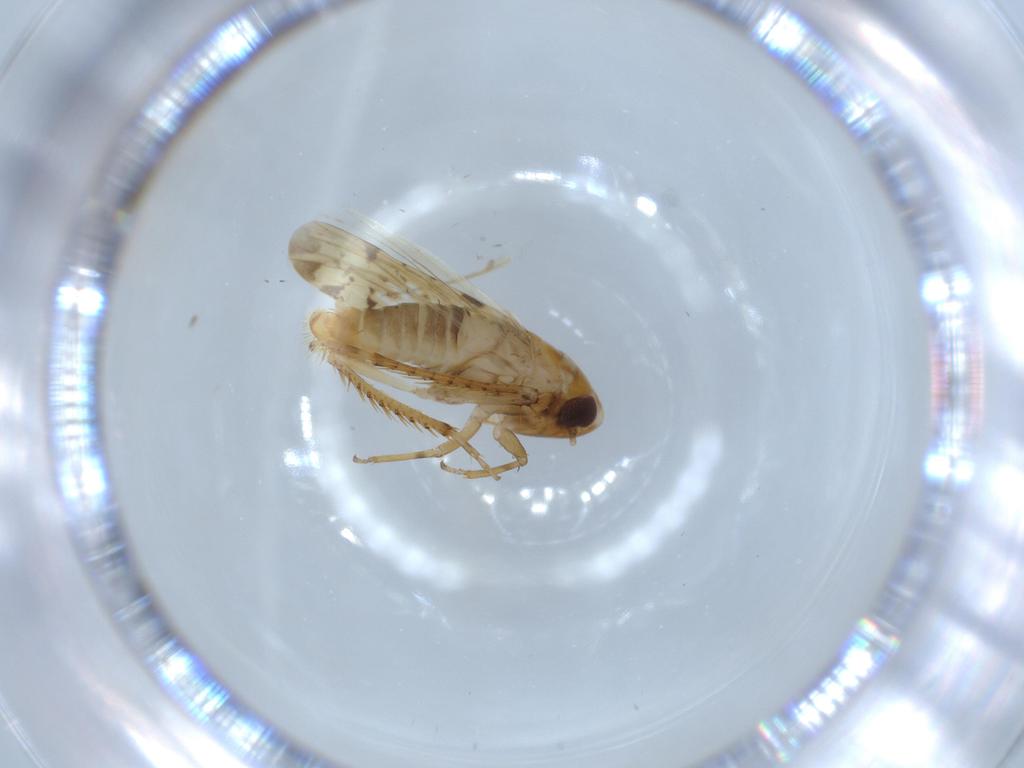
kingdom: Animalia
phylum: Arthropoda
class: Insecta
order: Hemiptera
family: Cicadellidae
